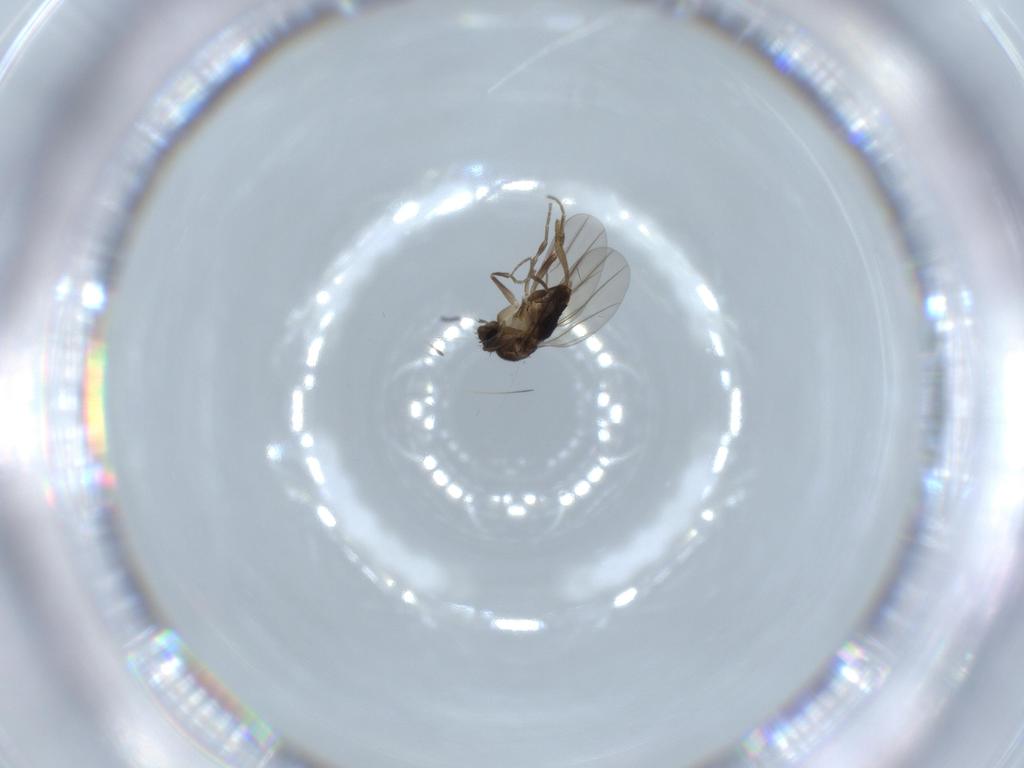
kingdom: Animalia
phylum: Arthropoda
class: Insecta
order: Diptera
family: Phoridae
